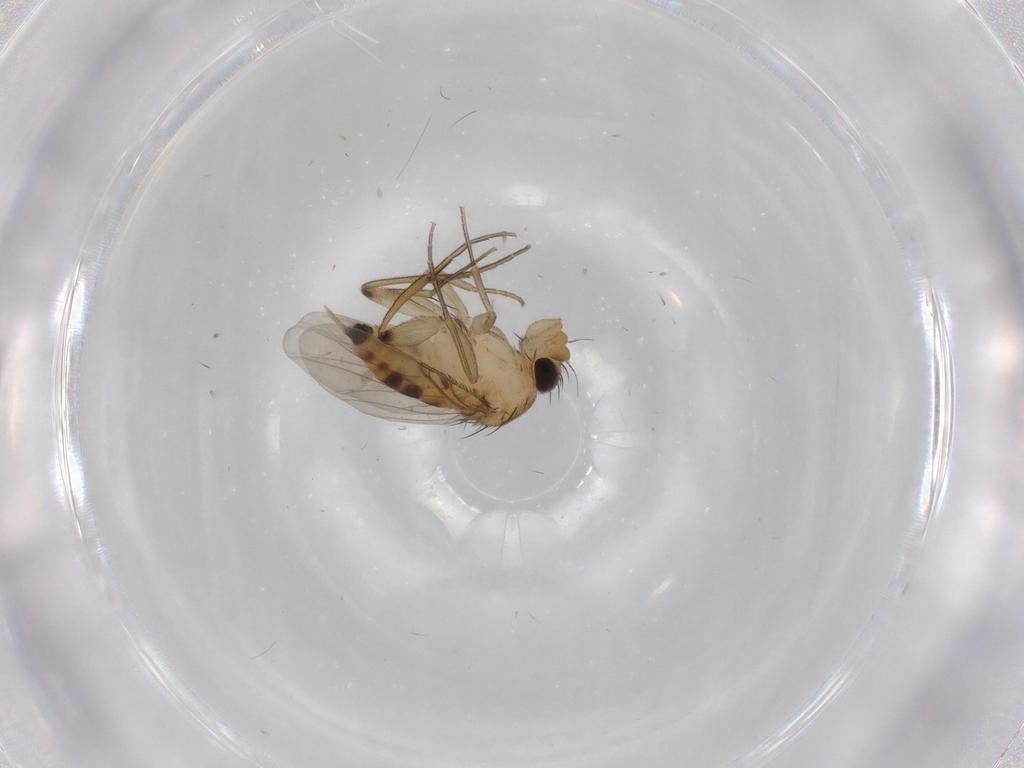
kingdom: Animalia
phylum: Arthropoda
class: Insecta
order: Diptera
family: Phoridae
